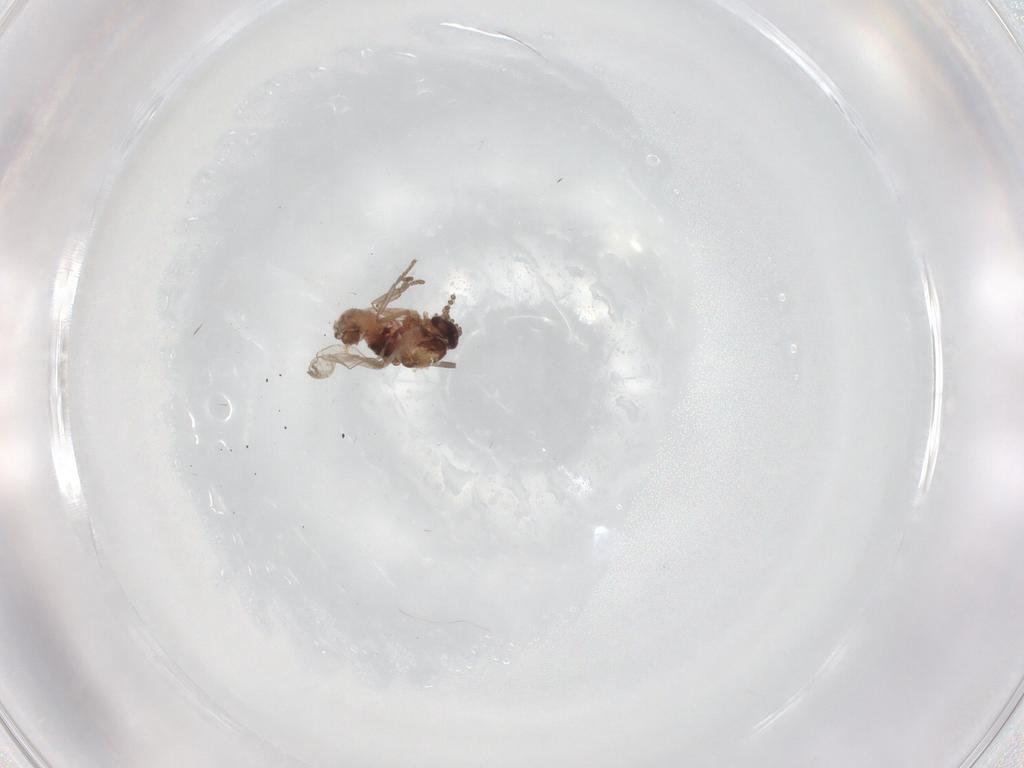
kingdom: Animalia
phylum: Arthropoda
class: Insecta
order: Diptera
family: Psychodidae
